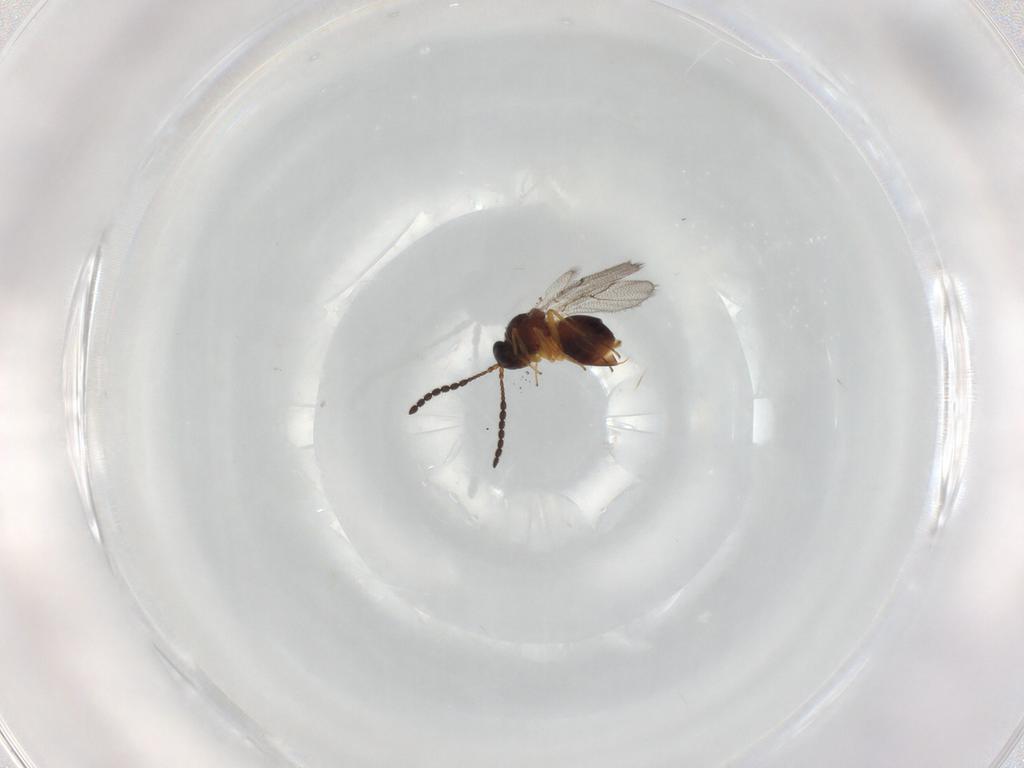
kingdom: Animalia
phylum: Arthropoda
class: Insecta
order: Hymenoptera
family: Figitidae
